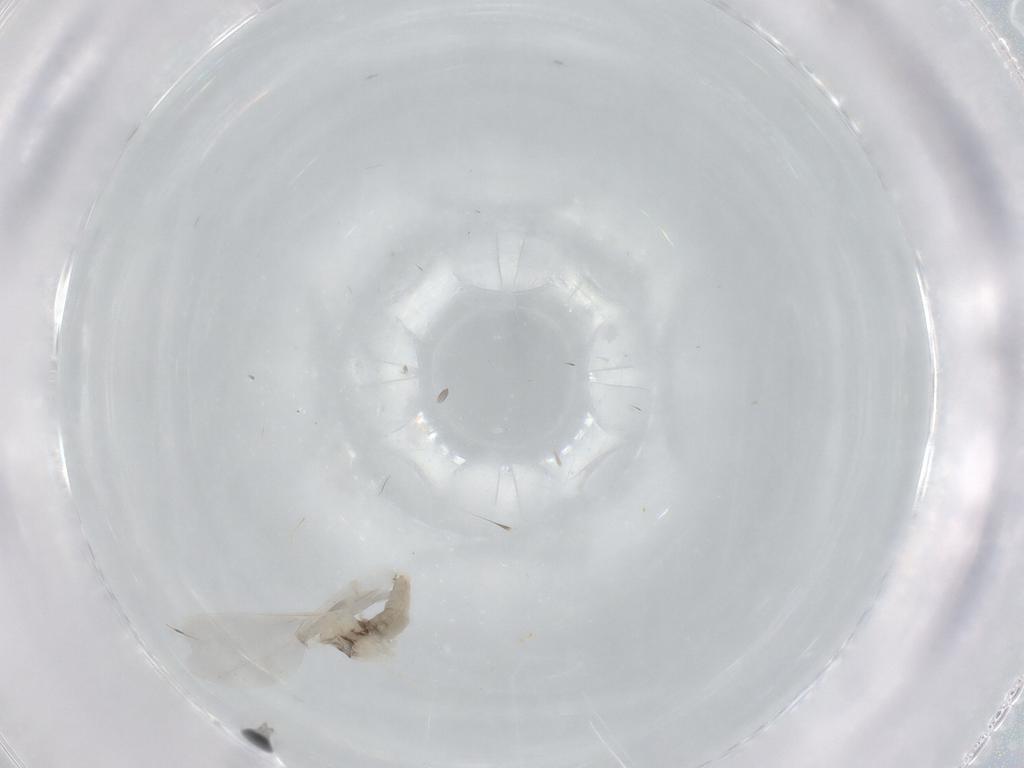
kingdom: Animalia
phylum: Arthropoda
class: Insecta
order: Diptera
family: Cecidomyiidae
